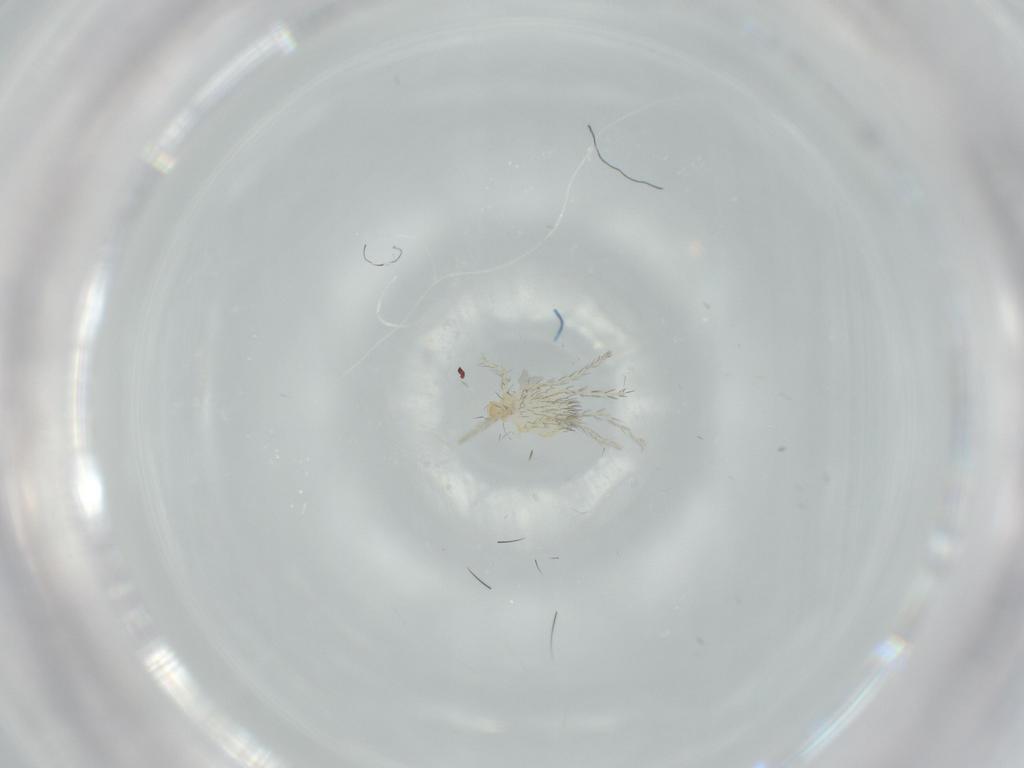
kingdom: Animalia
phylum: Arthropoda
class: Arachnida
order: Trombidiformes
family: Erythraeidae
